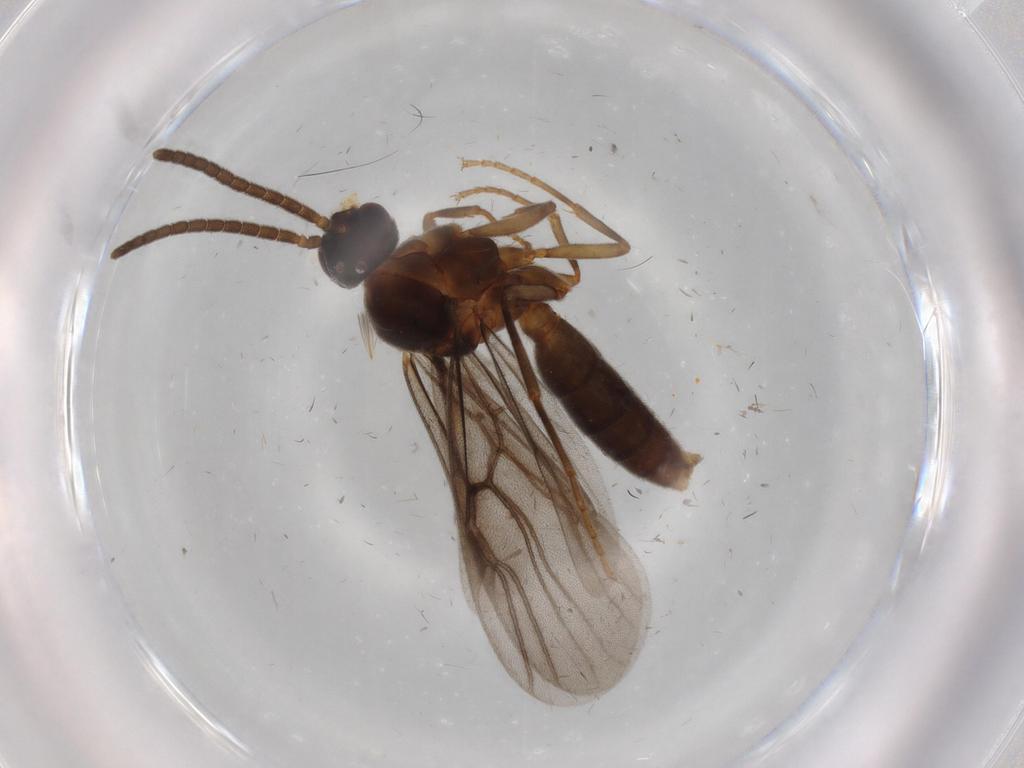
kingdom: Animalia
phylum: Arthropoda
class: Insecta
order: Hymenoptera
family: Formicidae
